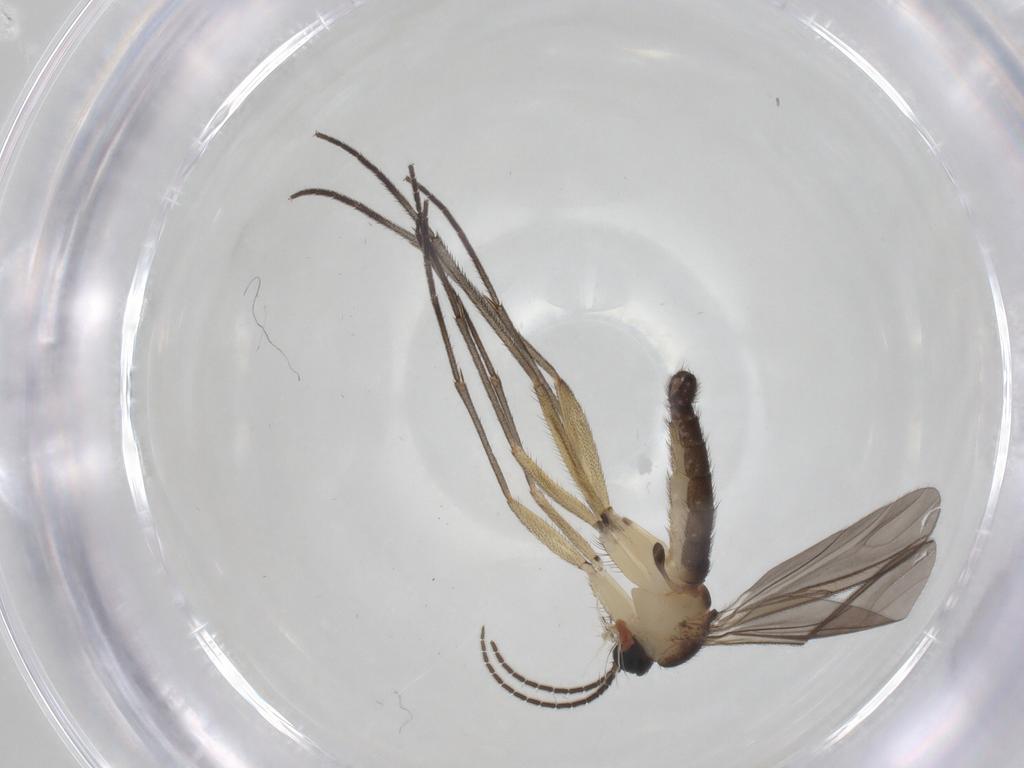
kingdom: Animalia
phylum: Arthropoda
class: Insecta
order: Diptera
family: Sciaridae
